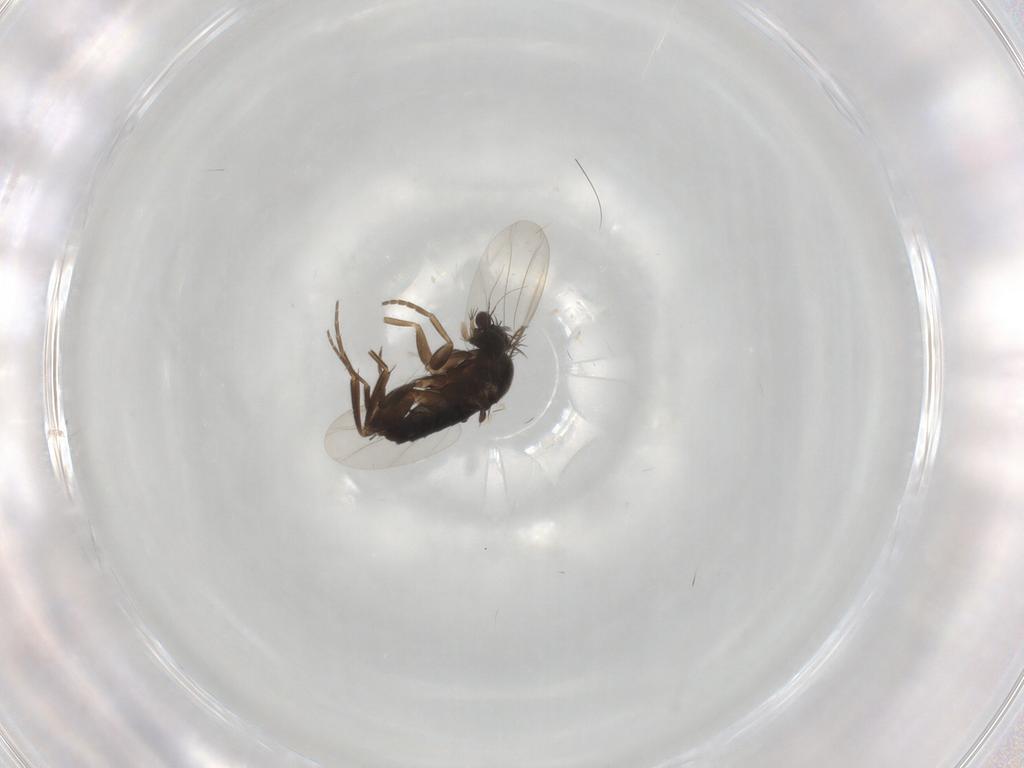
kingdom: Animalia
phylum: Arthropoda
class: Insecta
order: Diptera
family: Phoridae
